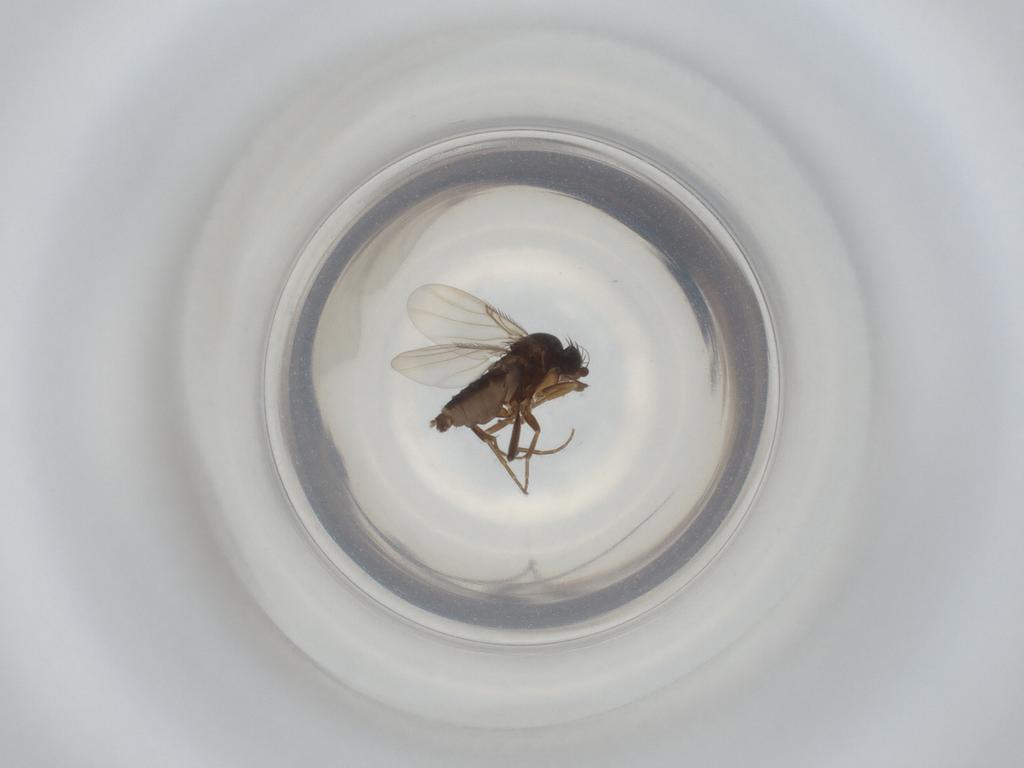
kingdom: Animalia
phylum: Arthropoda
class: Insecta
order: Diptera
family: Phoridae
